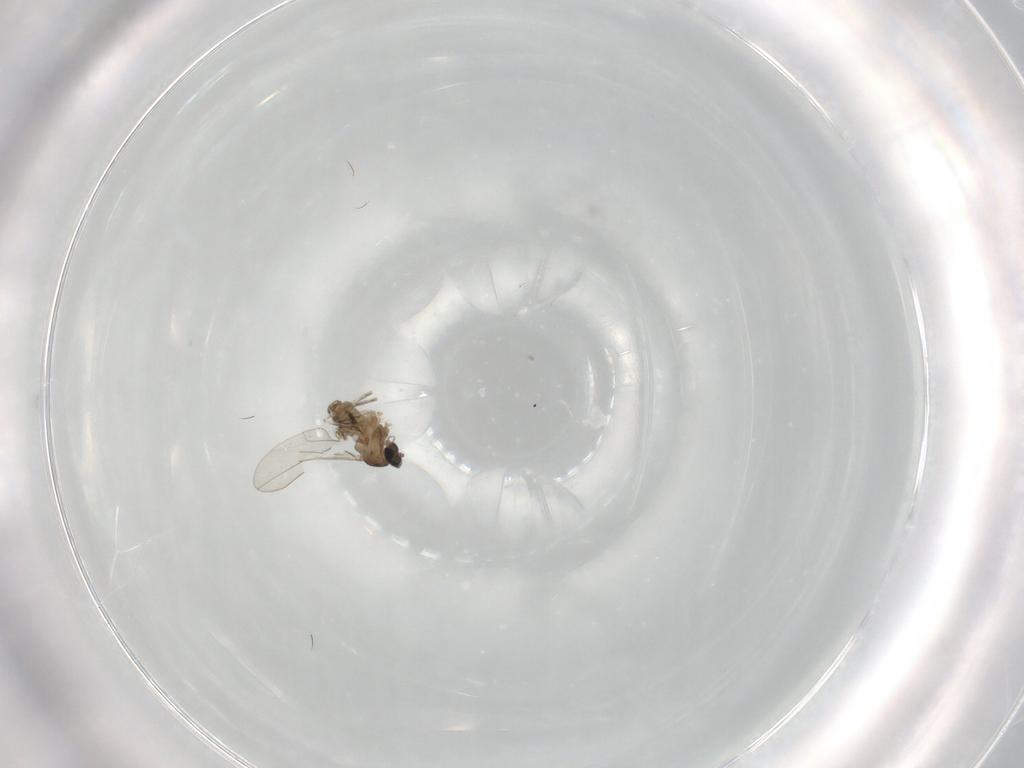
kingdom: Animalia
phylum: Arthropoda
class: Insecta
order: Diptera
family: Cecidomyiidae
